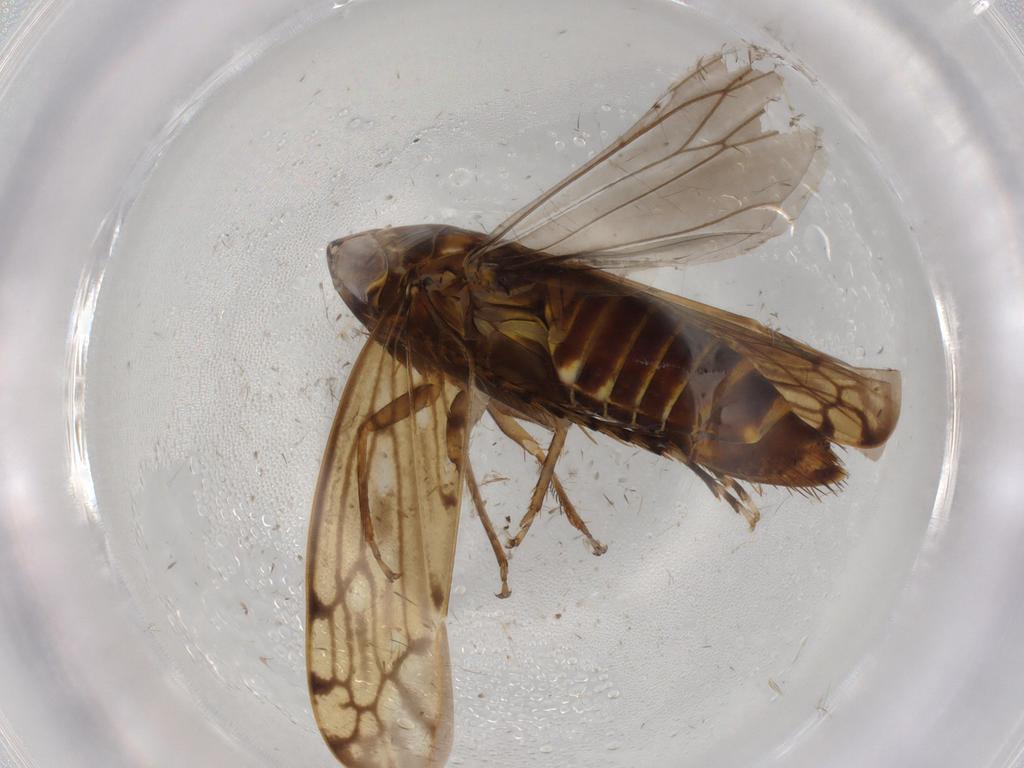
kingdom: Animalia
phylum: Arthropoda
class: Insecta
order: Hemiptera
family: Cicadellidae
